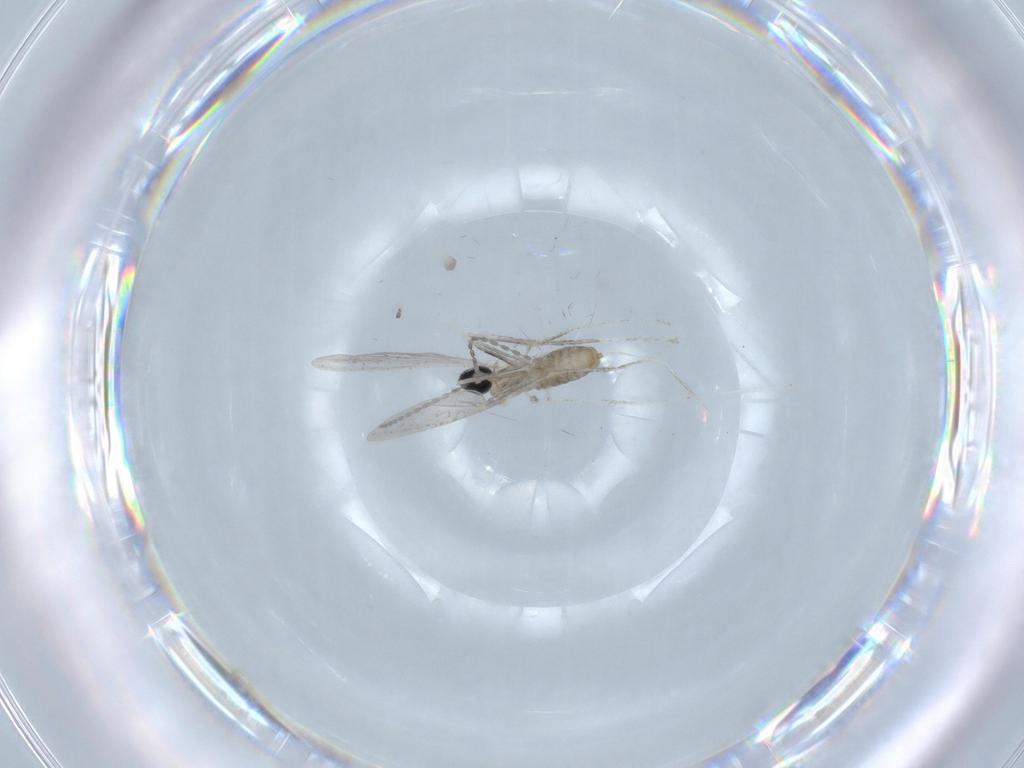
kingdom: Animalia
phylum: Arthropoda
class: Insecta
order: Diptera
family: Cecidomyiidae
